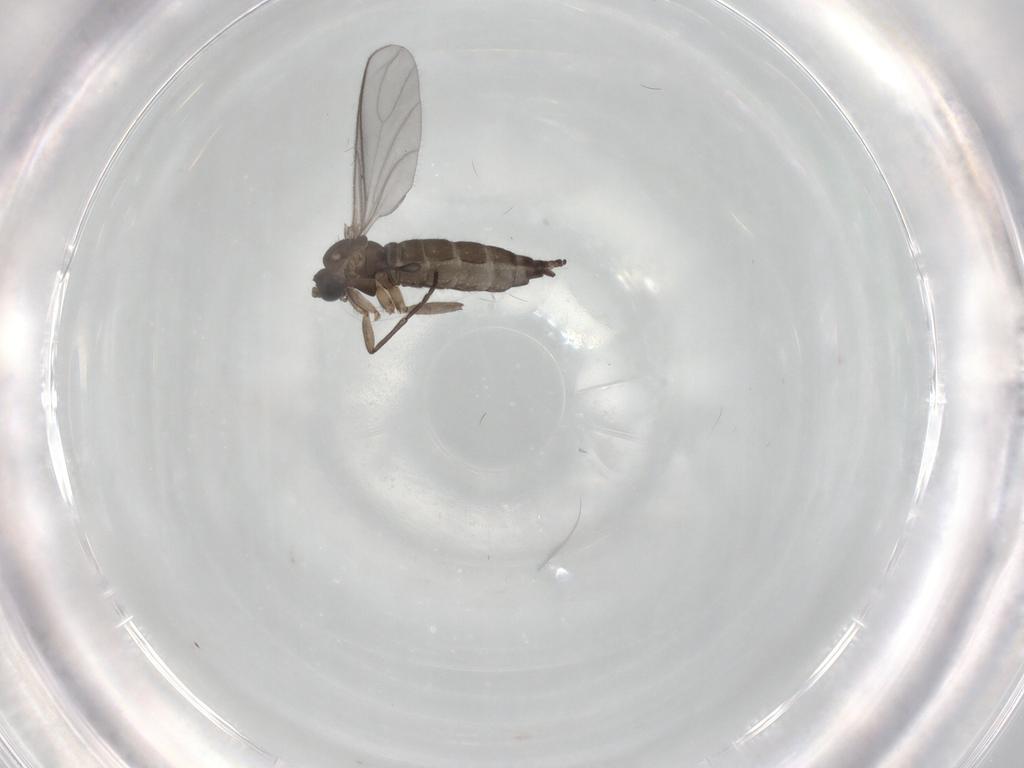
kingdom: Animalia
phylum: Arthropoda
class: Insecta
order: Diptera
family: Sciaridae
